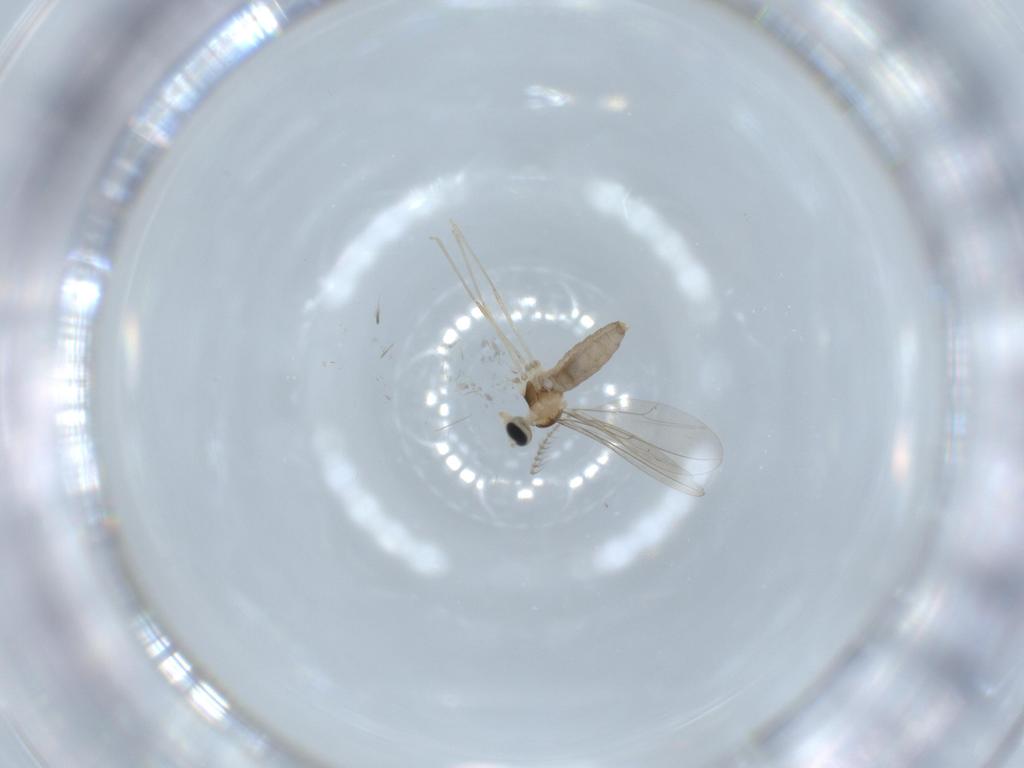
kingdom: Animalia
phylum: Arthropoda
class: Insecta
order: Diptera
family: Cecidomyiidae
